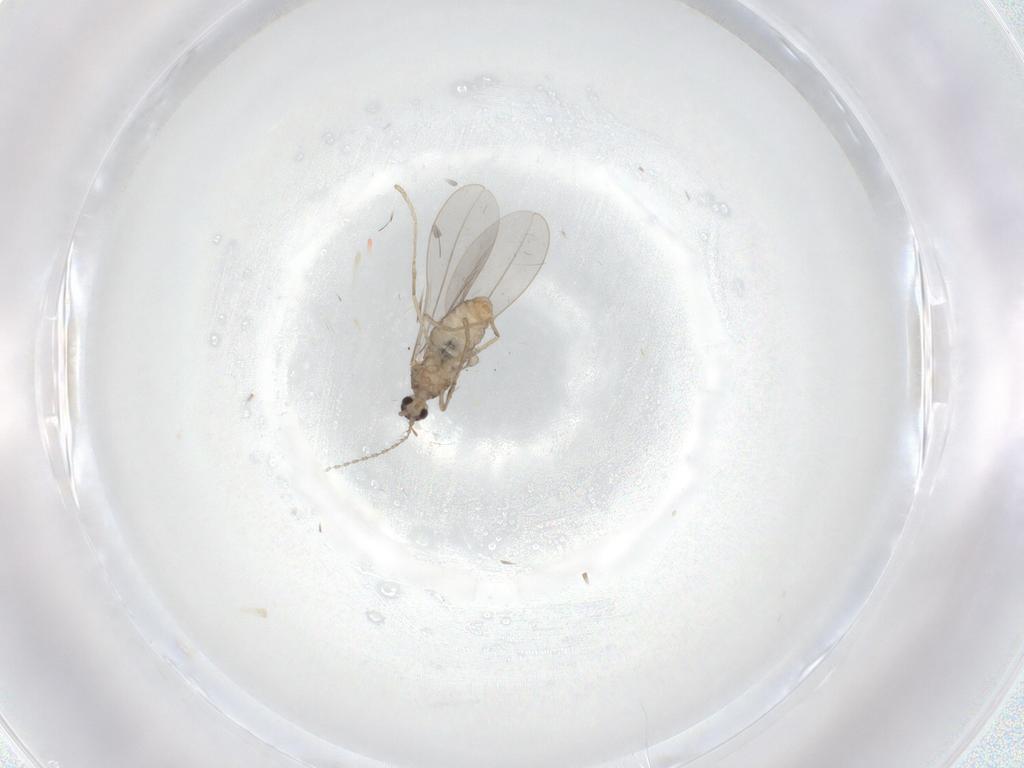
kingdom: Animalia
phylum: Arthropoda
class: Insecta
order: Diptera
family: Cecidomyiidae
